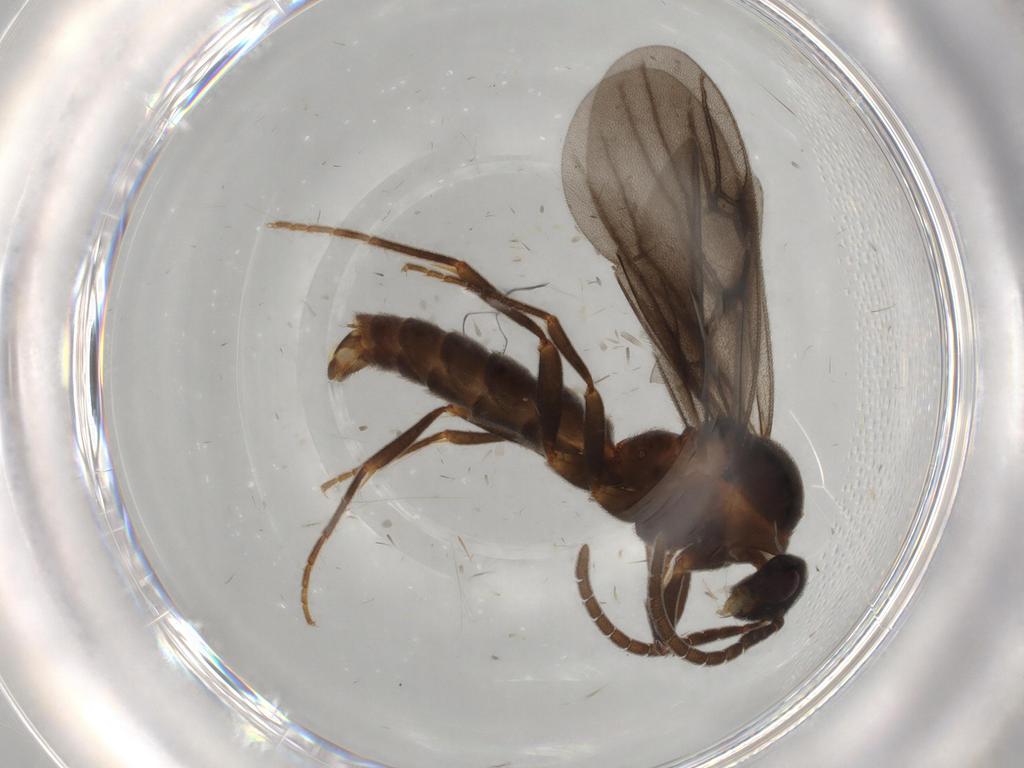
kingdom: Animalia
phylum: Arthropoda
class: Insecta
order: Hymenoptera
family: Formicidae
